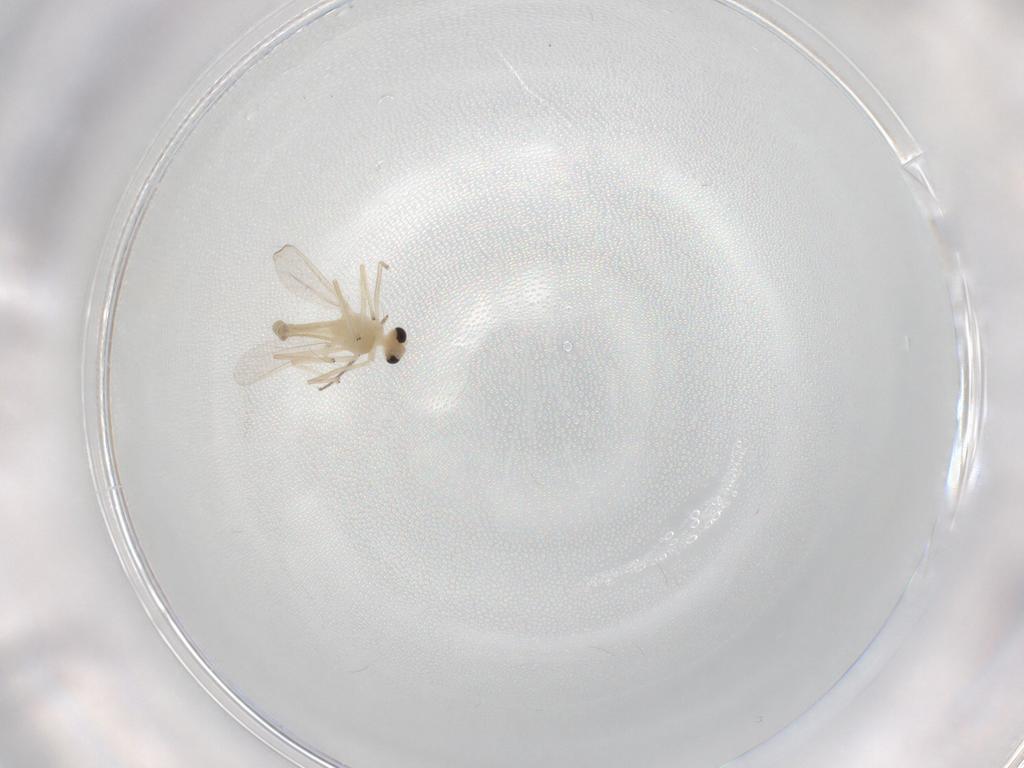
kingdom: Animalia
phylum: Arthropoda
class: Insecta
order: Diptera
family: Chironomidae
